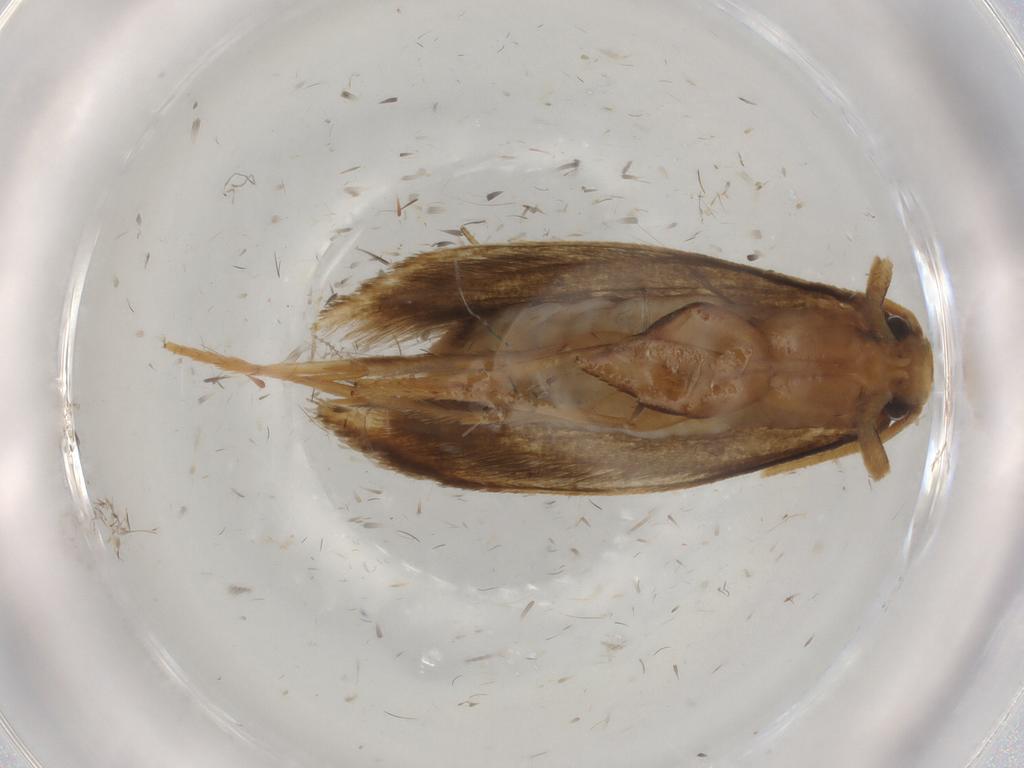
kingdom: Animalia
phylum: Arthropoda
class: Insecta
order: Lepidoptera
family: Tineidae
